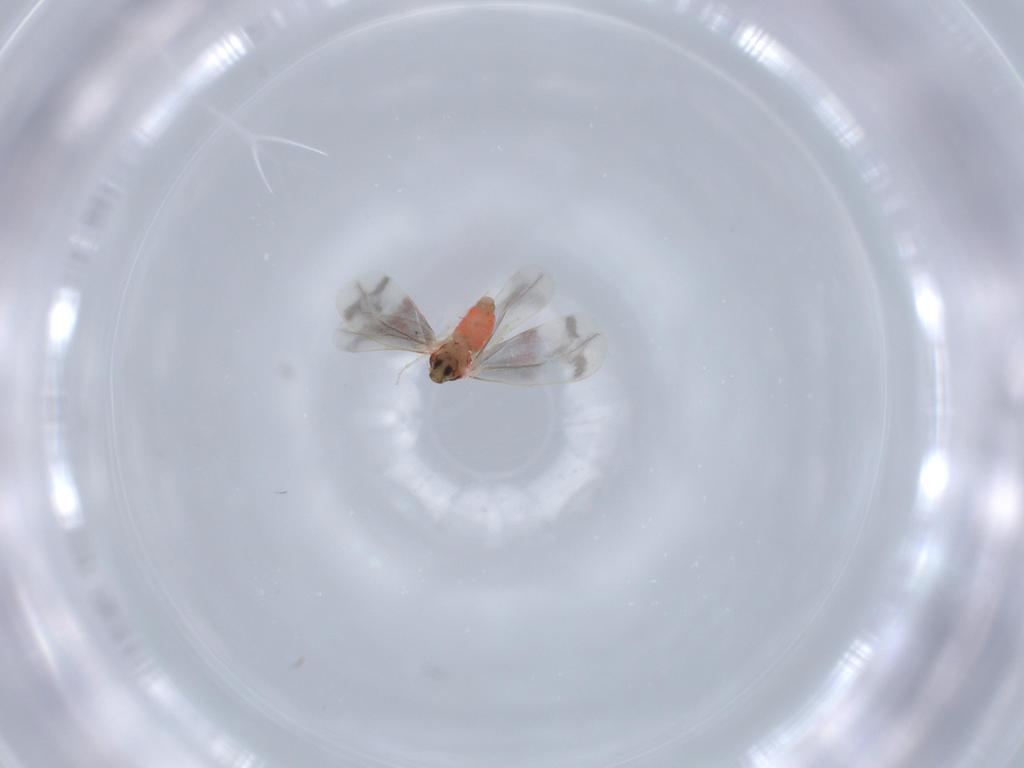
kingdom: Animalia
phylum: Arthropoda
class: Insecta
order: Hemiptera
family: Aleyrodidae
